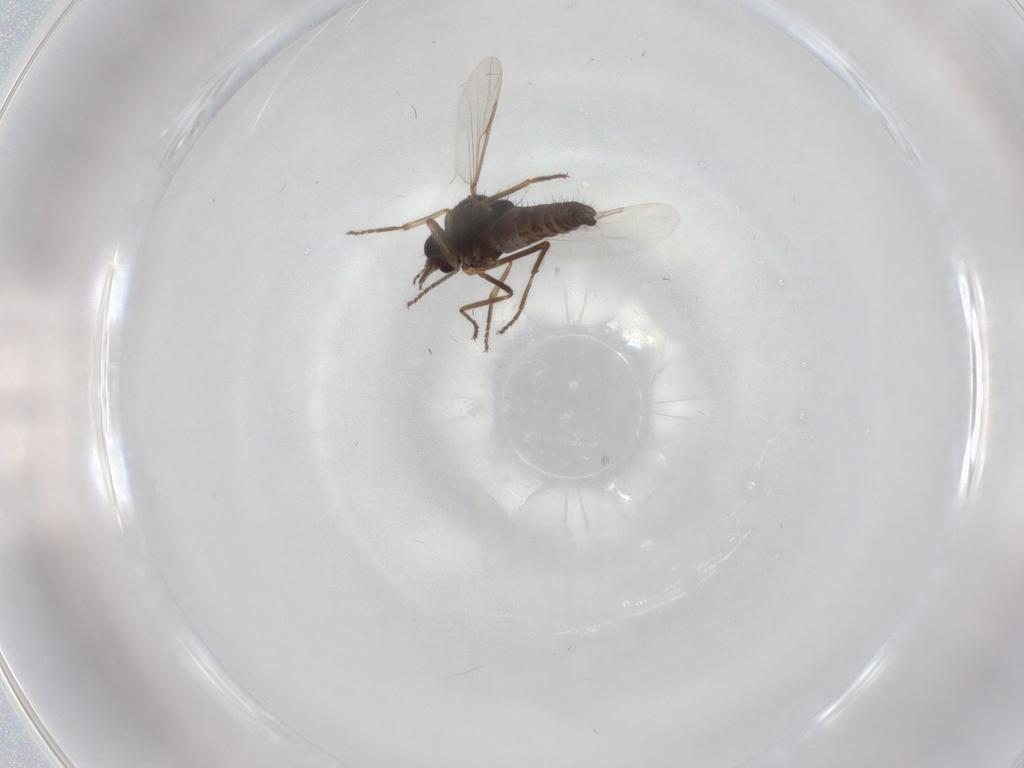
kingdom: Animalia
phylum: Arthropoda
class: Insecta
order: Diptera
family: Ceratopogonidae
